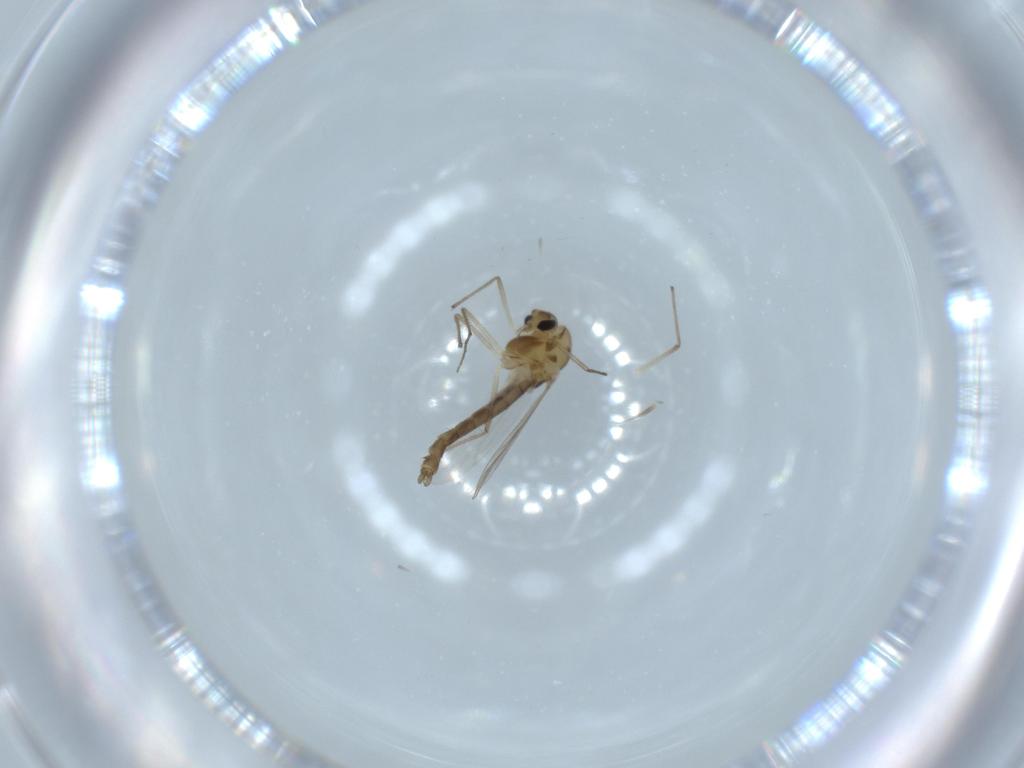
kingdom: Animalia
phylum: Arthropoda
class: Insecta
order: Diptera
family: Chironomidae
